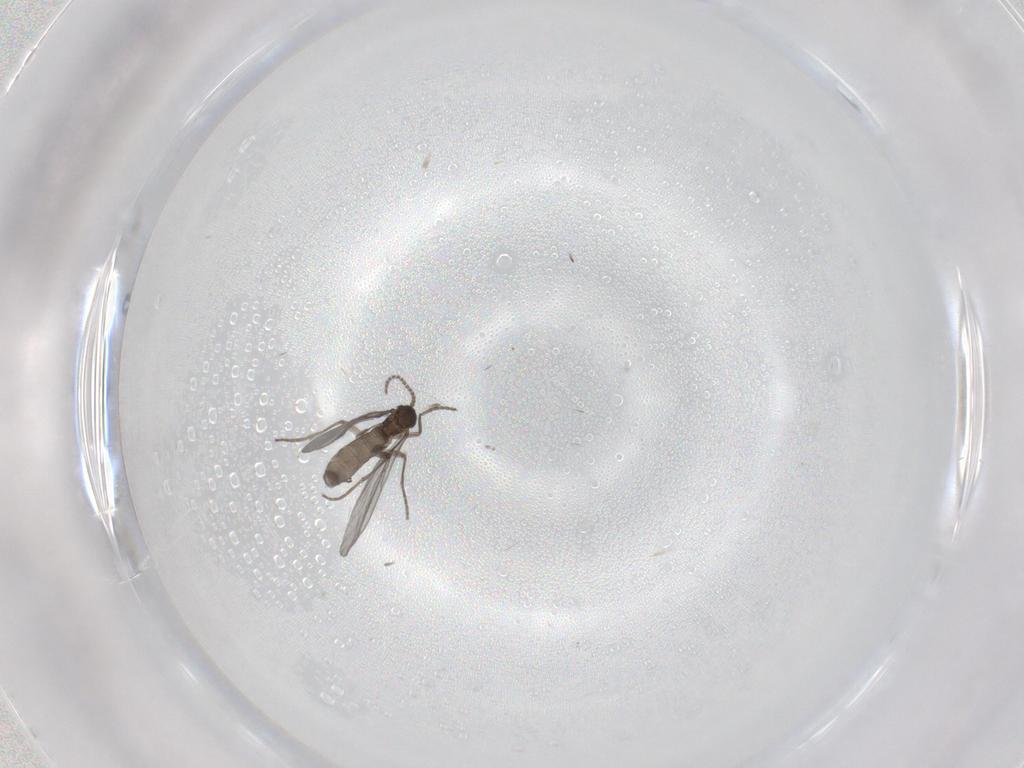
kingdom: Animalia
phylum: Arthropoda
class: Insecta
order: Diptera
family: Sciaridae
